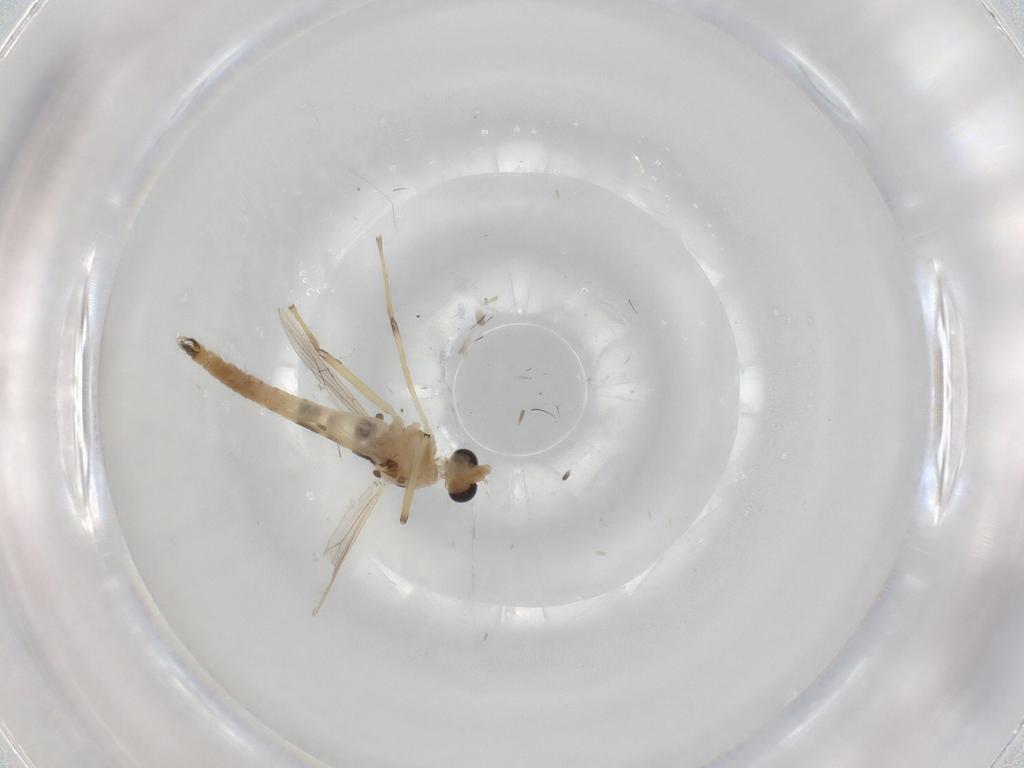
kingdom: Animalia
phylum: Arthropoda
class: Insecta
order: Diptera
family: Chironomidae
